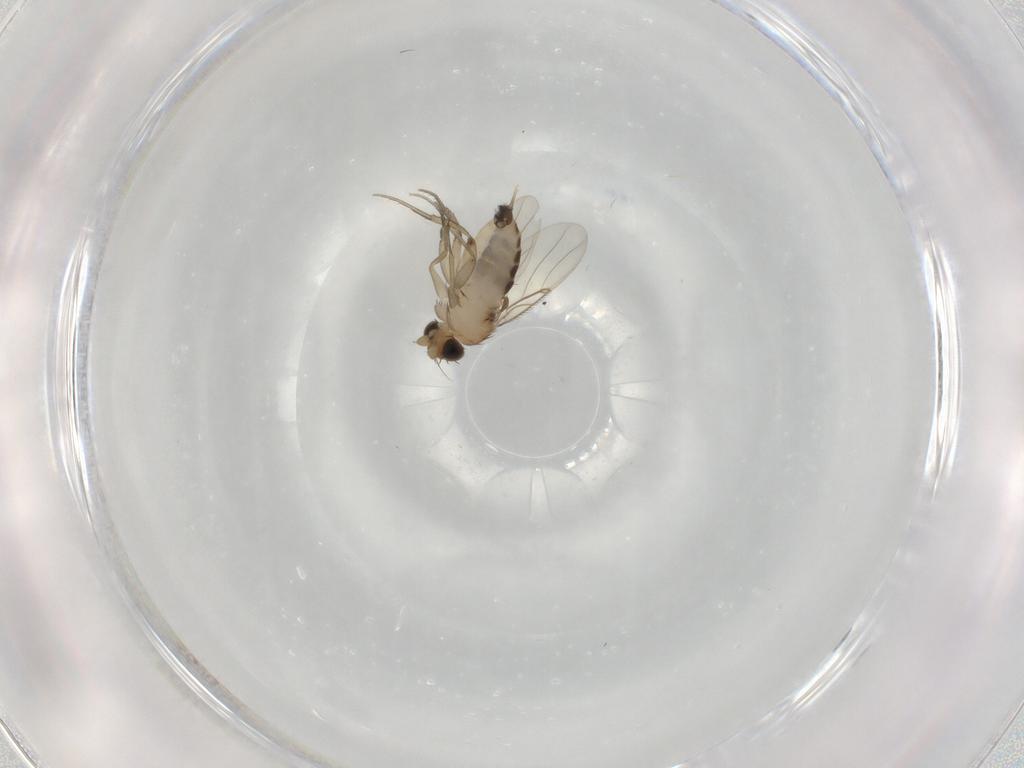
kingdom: Animalia
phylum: Arthropoda
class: Insecta
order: Diptera
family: Phoridae
